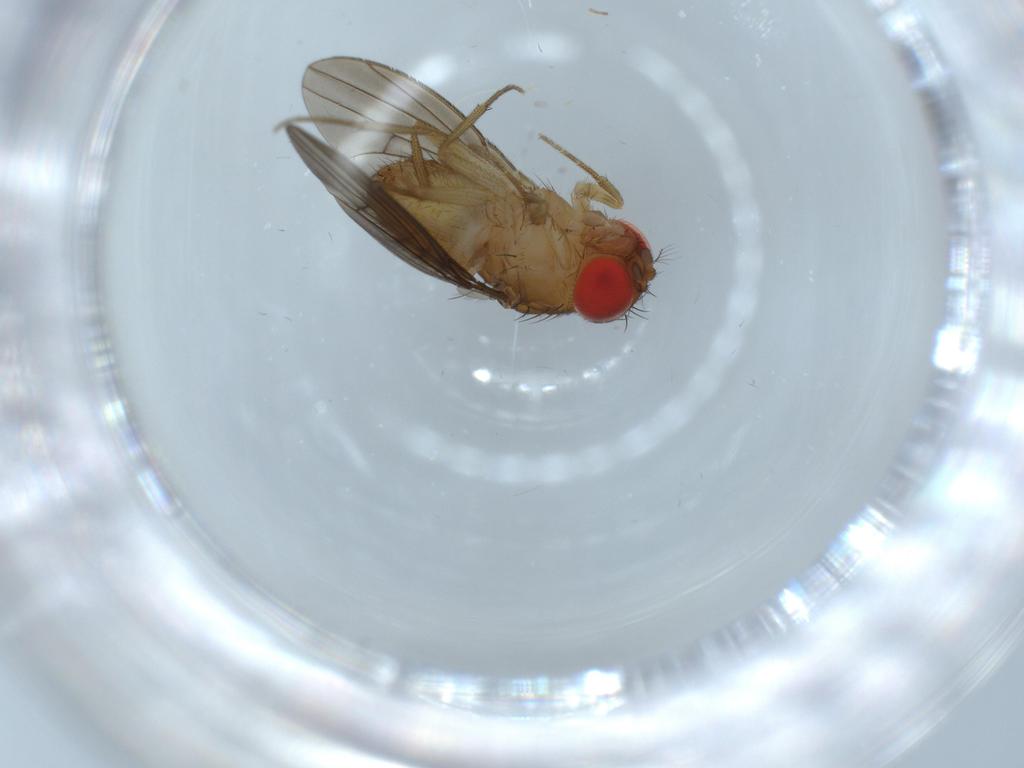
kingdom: Animalia
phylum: Arthropoda
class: Insecta
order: Diptera
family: Drosophilidae
